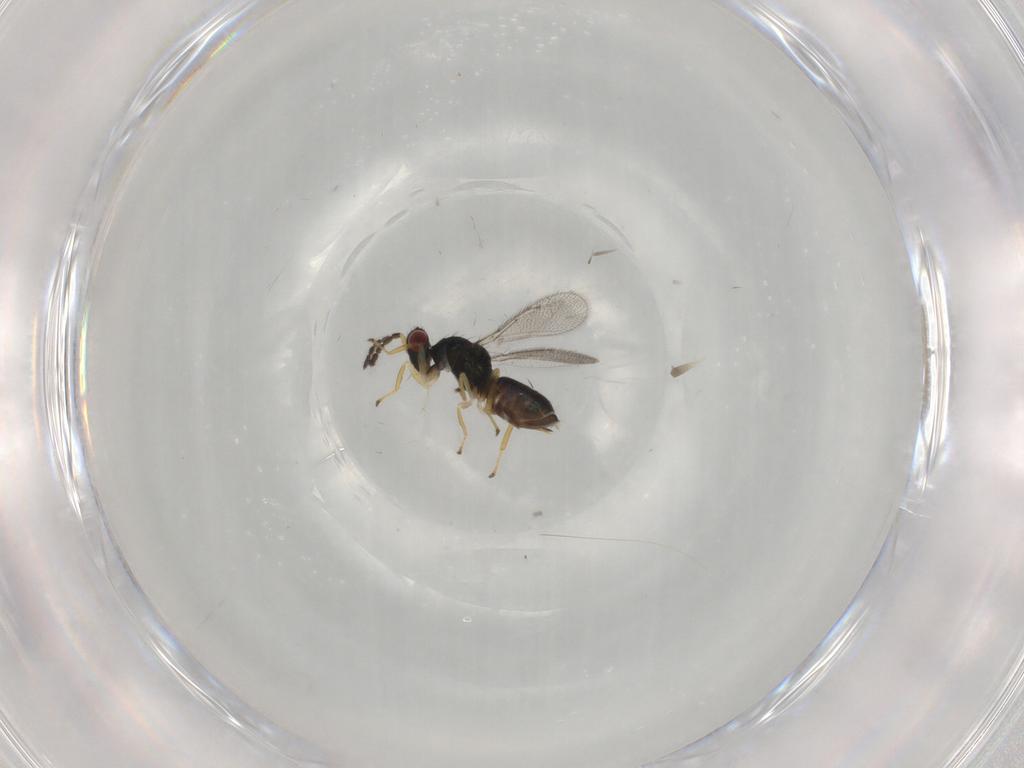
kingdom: Animalia
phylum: Arthropoda
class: Insecta
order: Hymenoptera
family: Eulophidae
